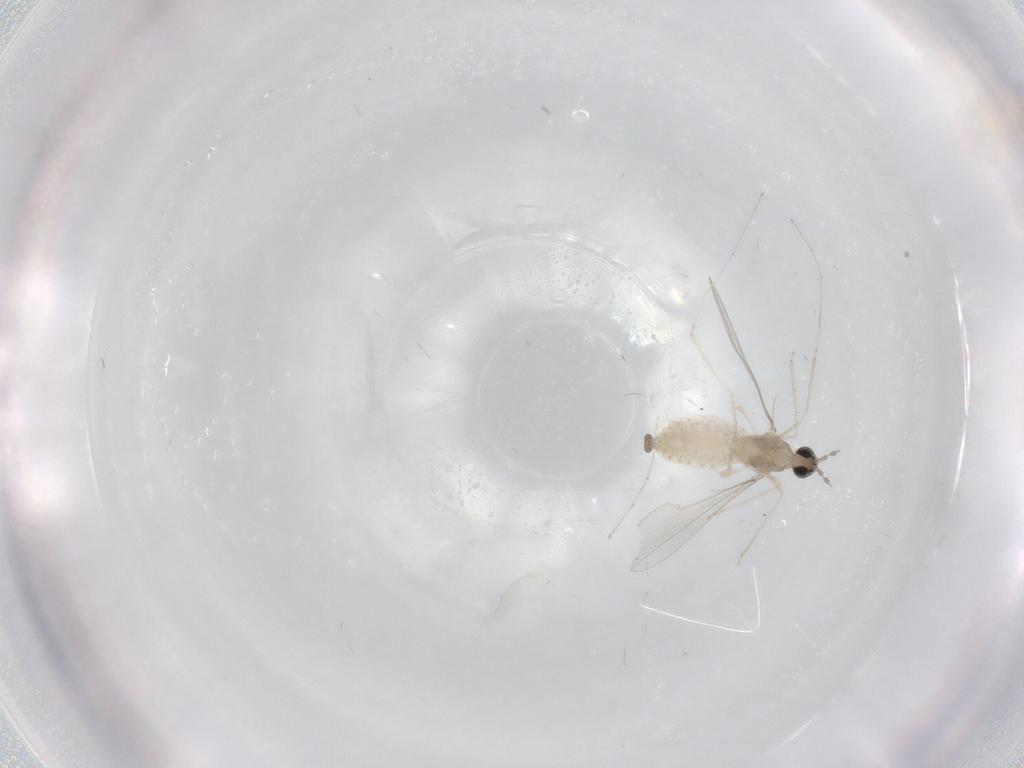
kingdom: Animalia
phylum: Arthropoda
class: Insecta
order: Diptera
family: Cecidomyiidae
